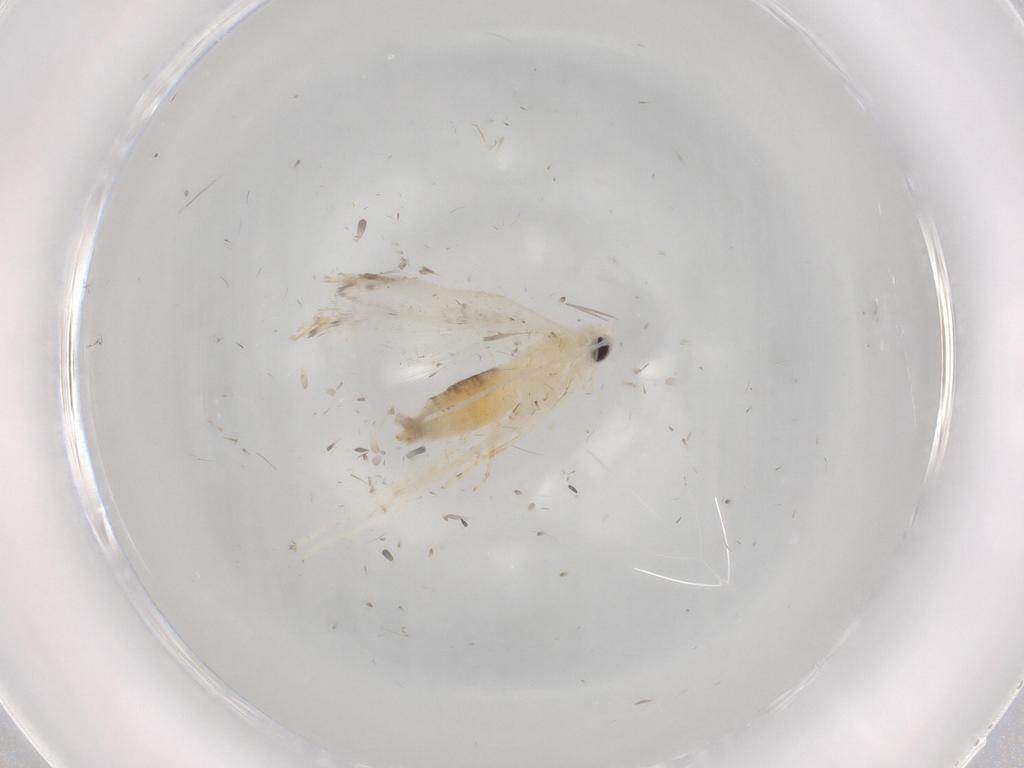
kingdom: Animalia
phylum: Arthropoda
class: Insecta
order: Lepidoptera
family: Gracillariidae
